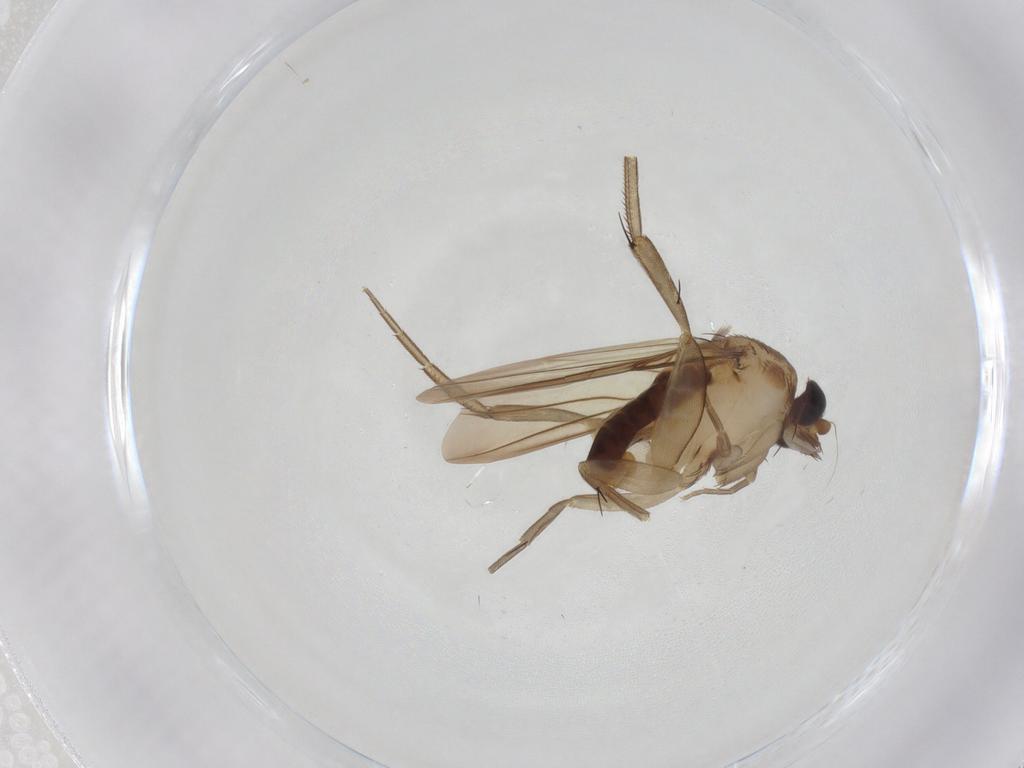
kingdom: Animalia
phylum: Arthropoda
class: Insecta
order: Diptera
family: Phoridae
